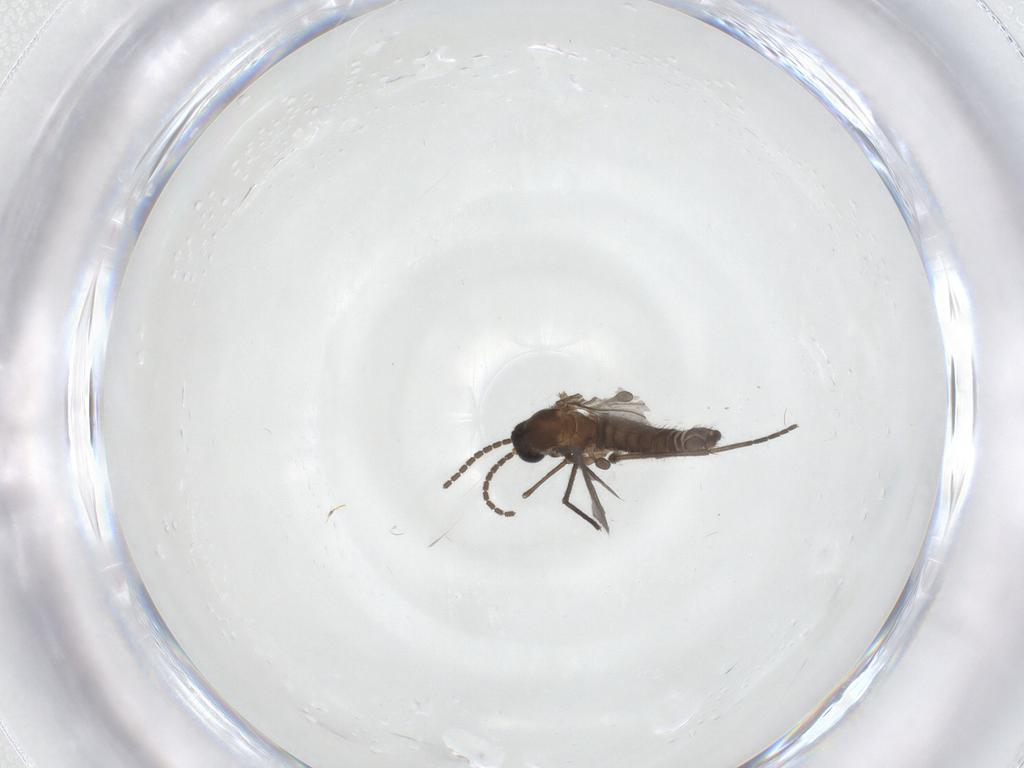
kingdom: Animalia
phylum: Arthropoda
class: Insecta
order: Diptera
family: Sciaridae
